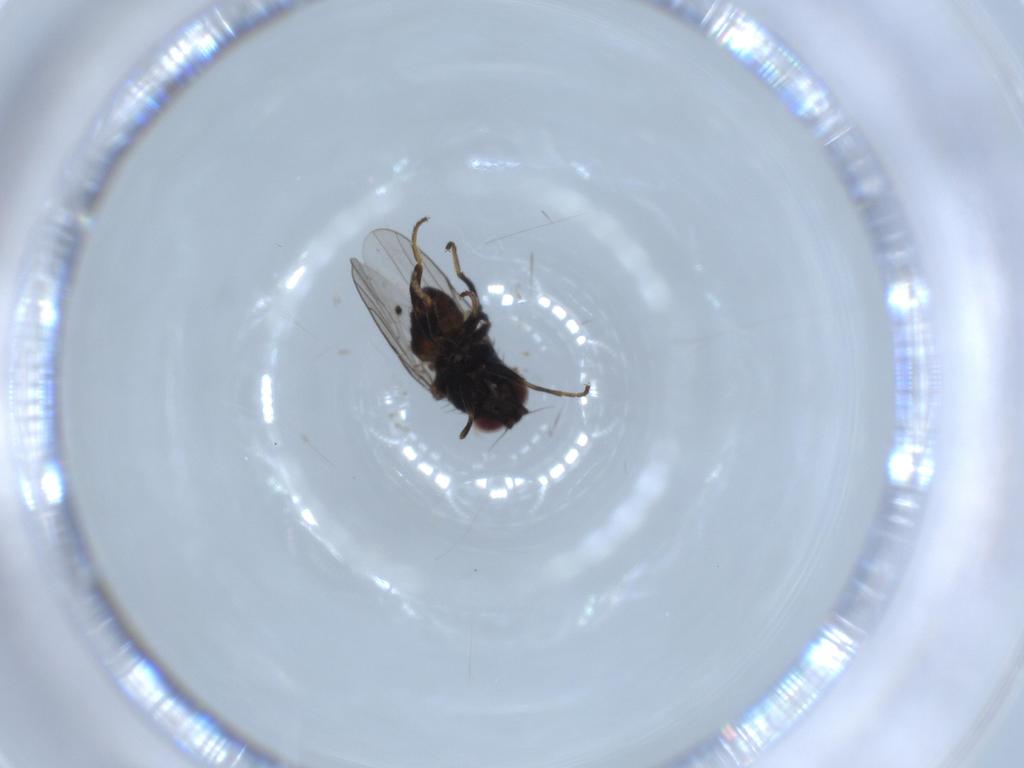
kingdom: Animalia
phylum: Arthropoda
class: Insecta
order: Diptera
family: Chloropidae
